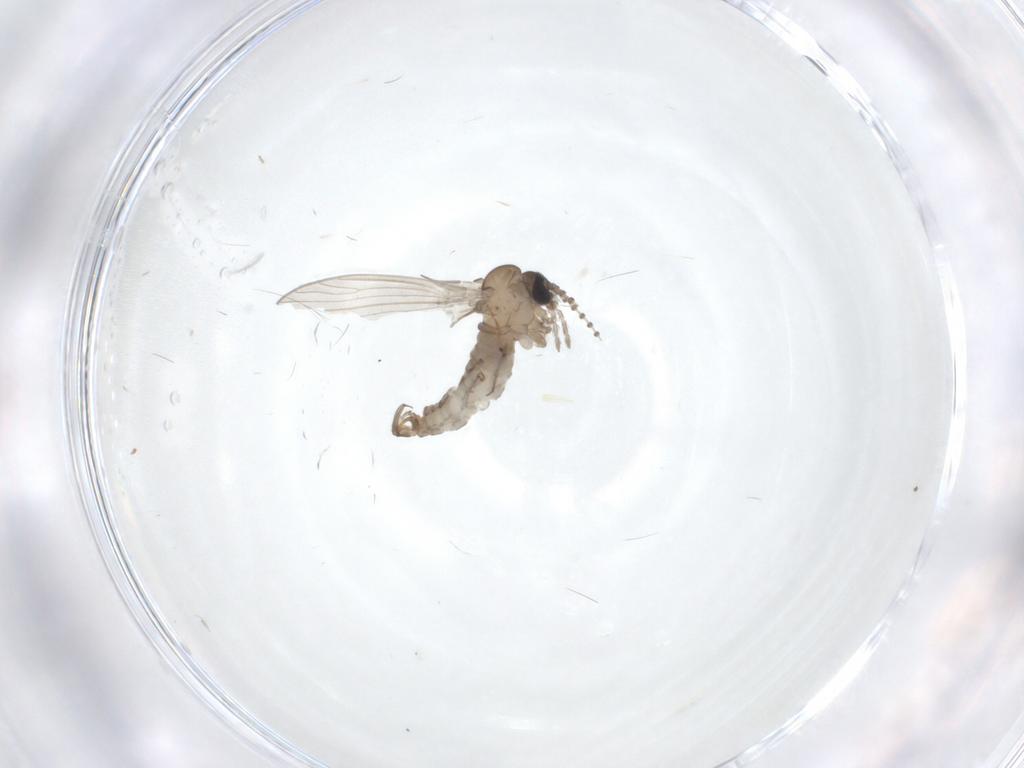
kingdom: Animalia
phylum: Arthropoda
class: Insecta
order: Diptera
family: Psychodidae
